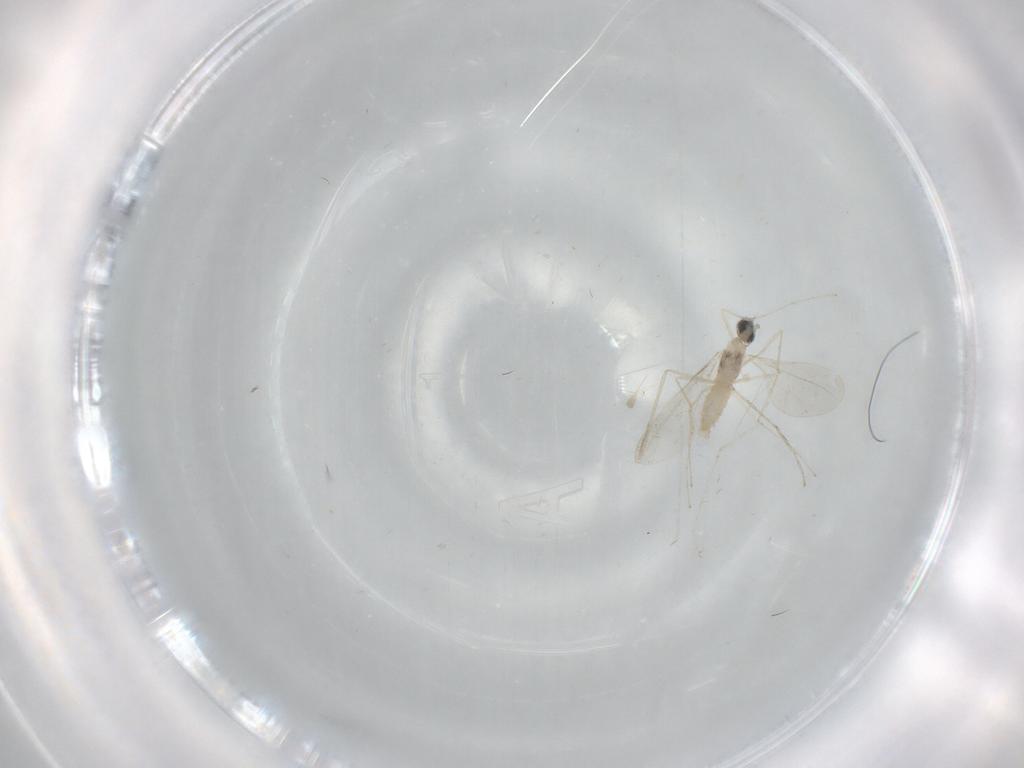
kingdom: Animalia
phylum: Arthropoda
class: Insecta
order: Diptera
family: Cecidomyiidae
